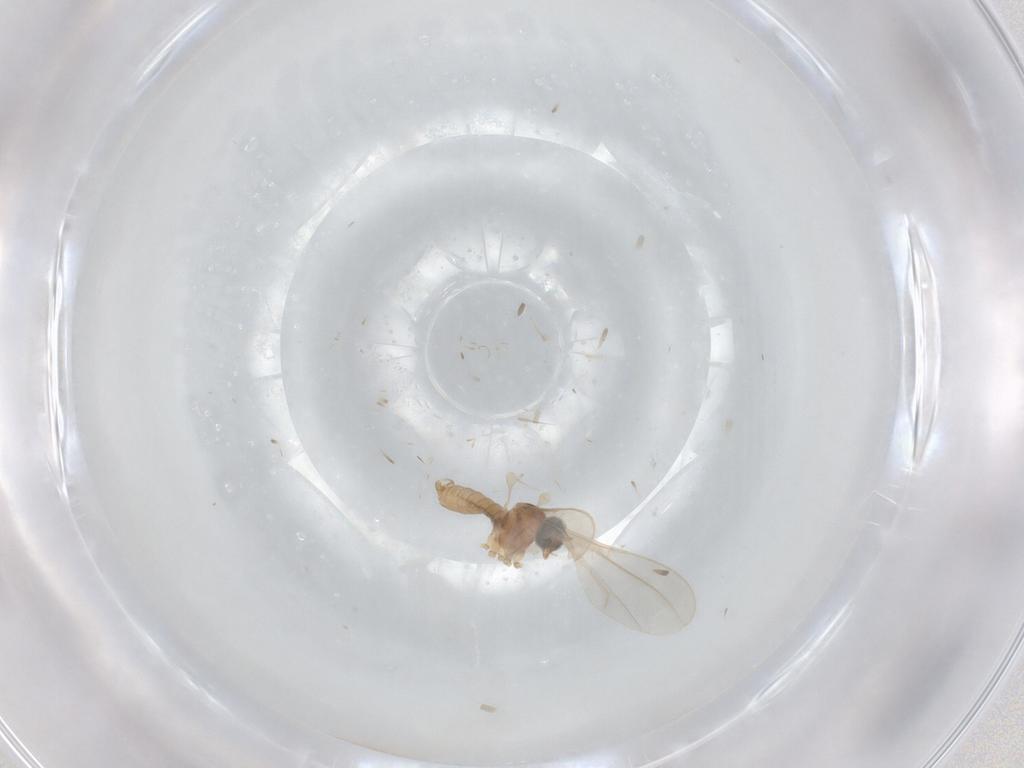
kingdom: Animalia
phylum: Arthropoda
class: Insecta
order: Diptera
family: Cecidomyiidae
